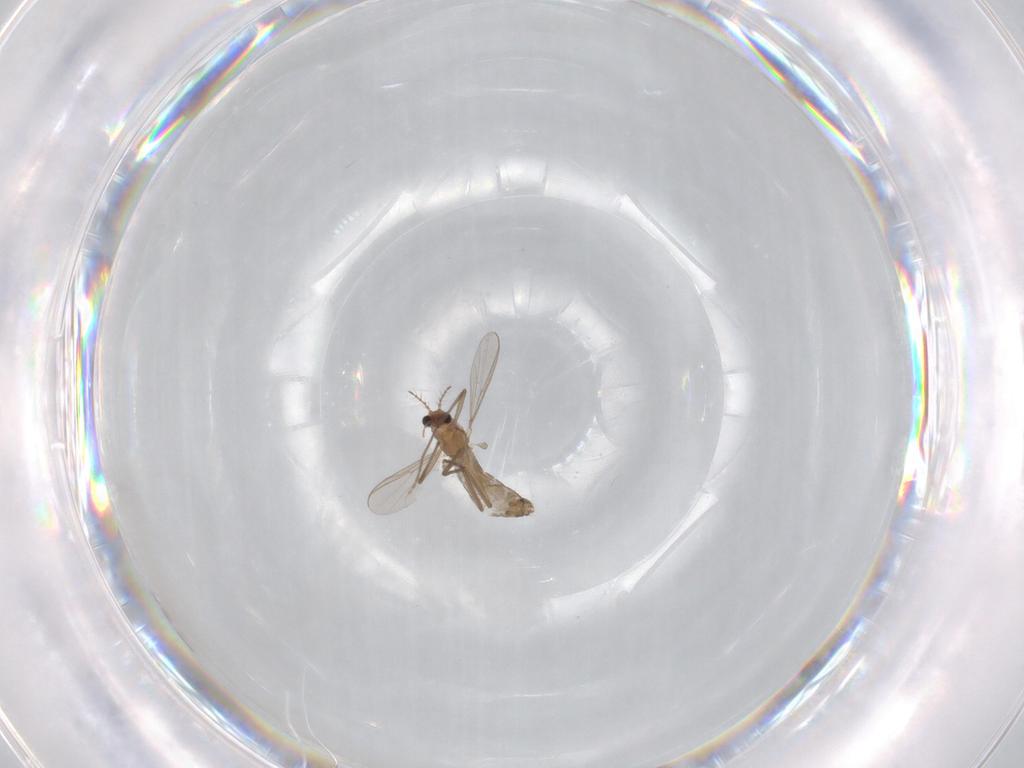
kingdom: Animalia
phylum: Arthropoda
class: Insecta
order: Diptera
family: Chironomidae
